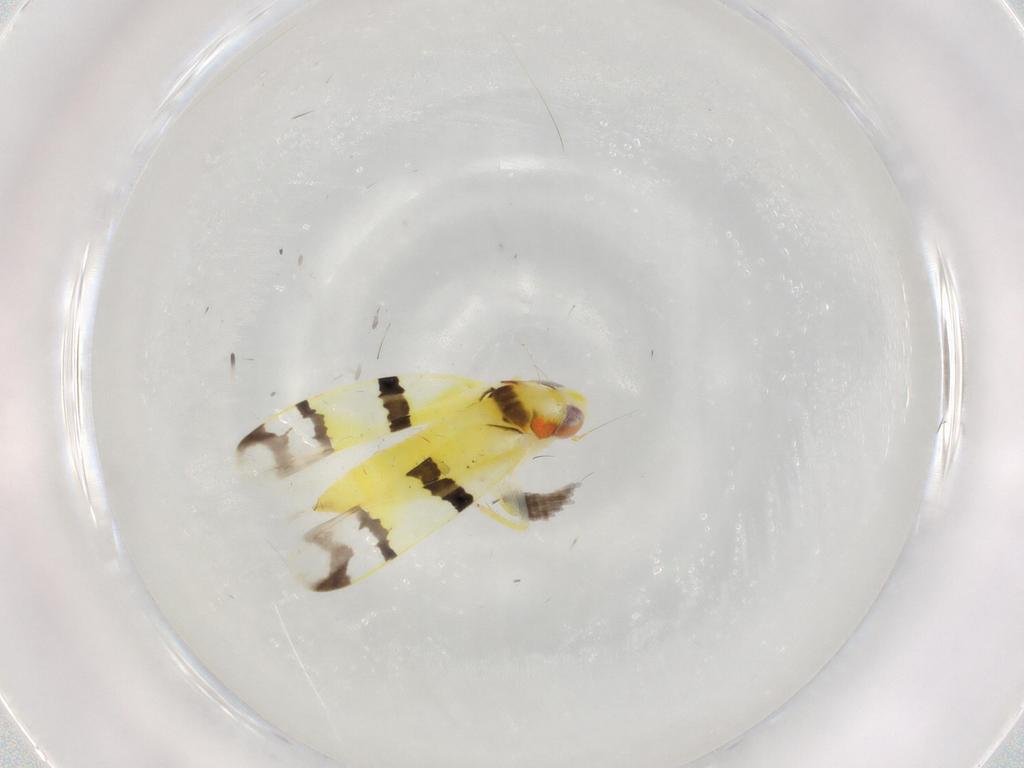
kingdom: Animalia
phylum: Arthropoda
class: Insecta
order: Hemiptera
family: Cicadellidae
